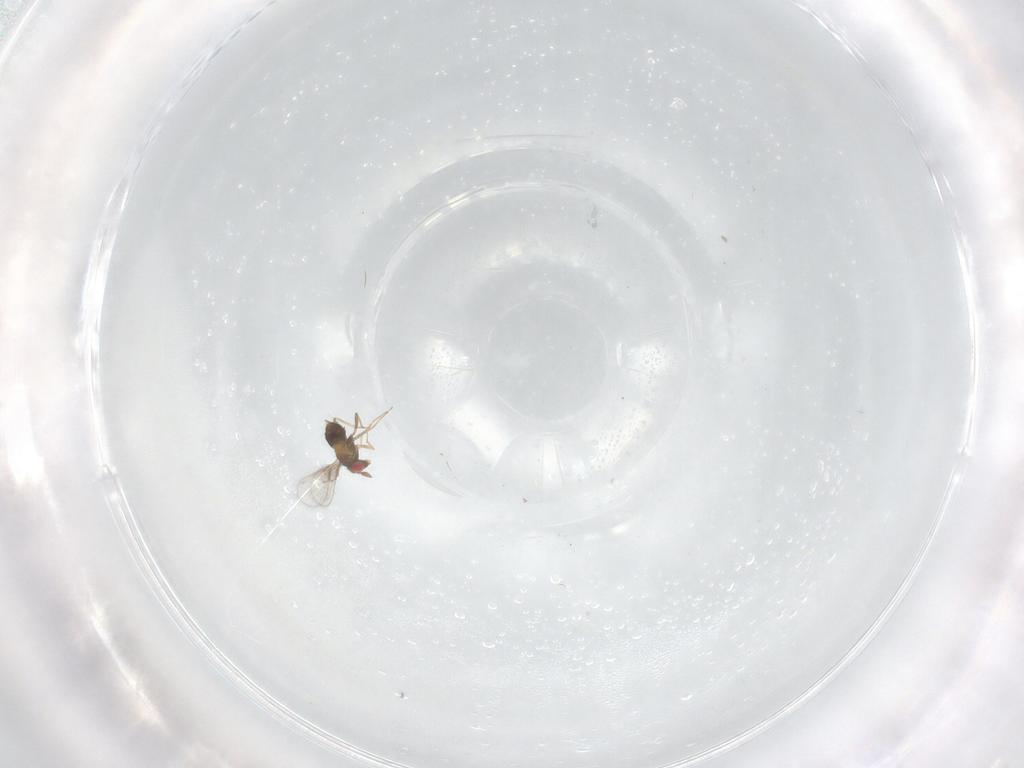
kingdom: Animalia
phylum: Arthropoda
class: Insecta
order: Hymenoptera
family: Trichogrammatidae
